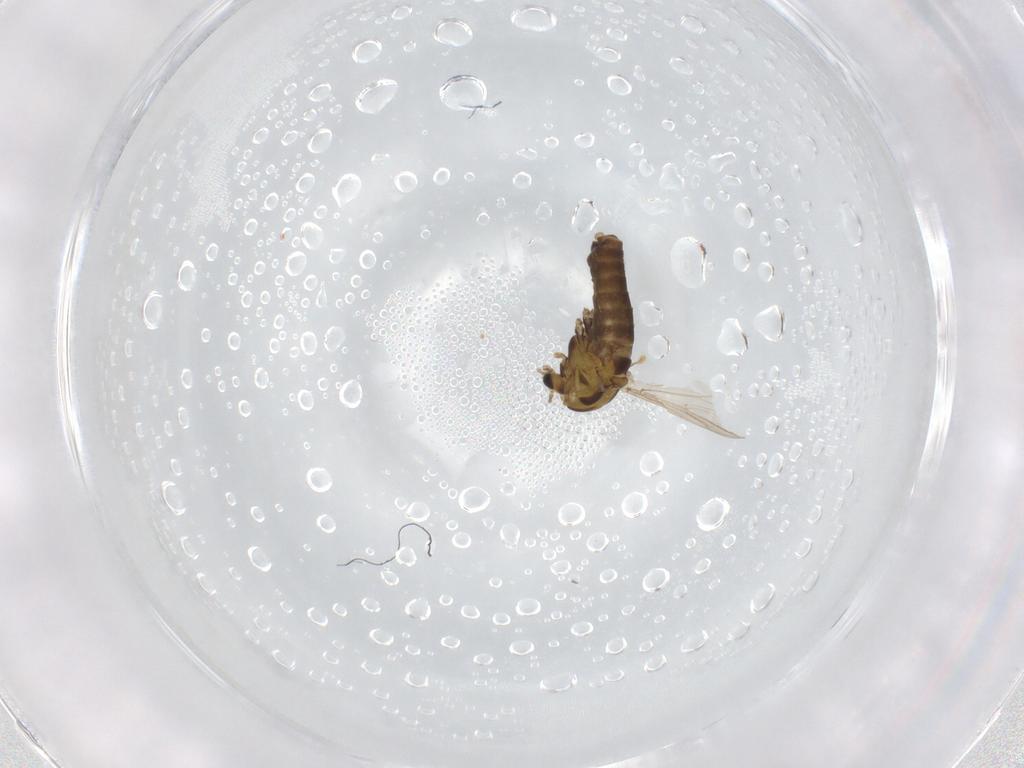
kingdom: Animalia
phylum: Arthropoda
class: Insecta
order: Diptera
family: Chironomidae
